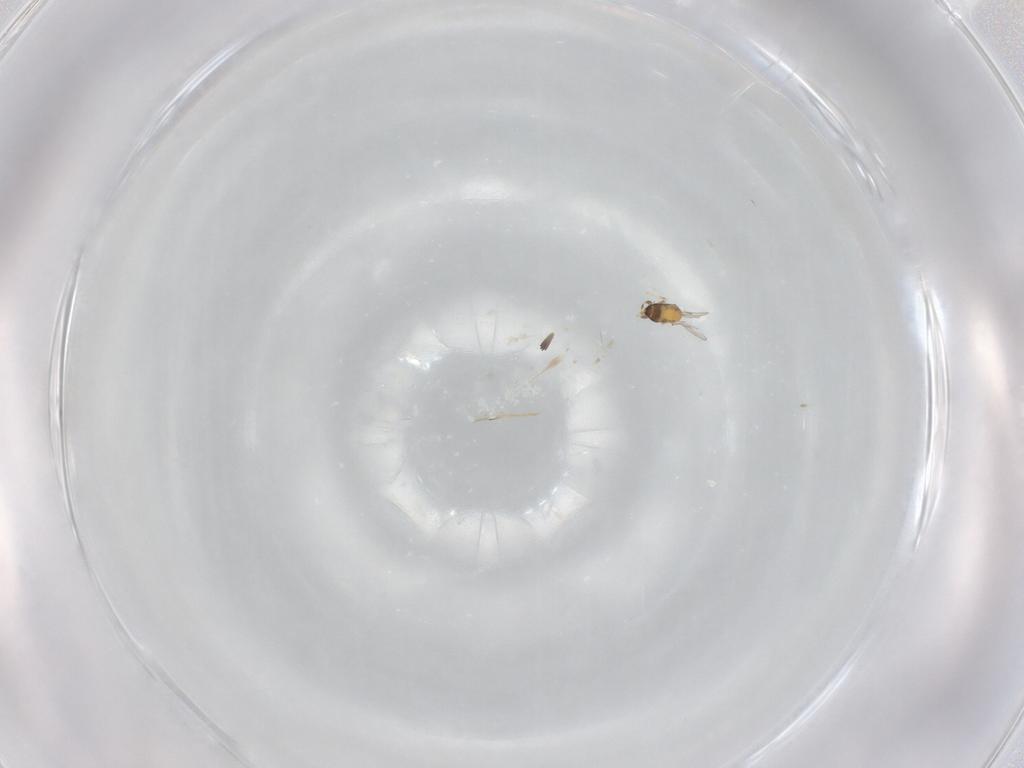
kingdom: Animalia
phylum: Arthropoda
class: Insecta
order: Hymenoptera
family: Trichogrammatidae
